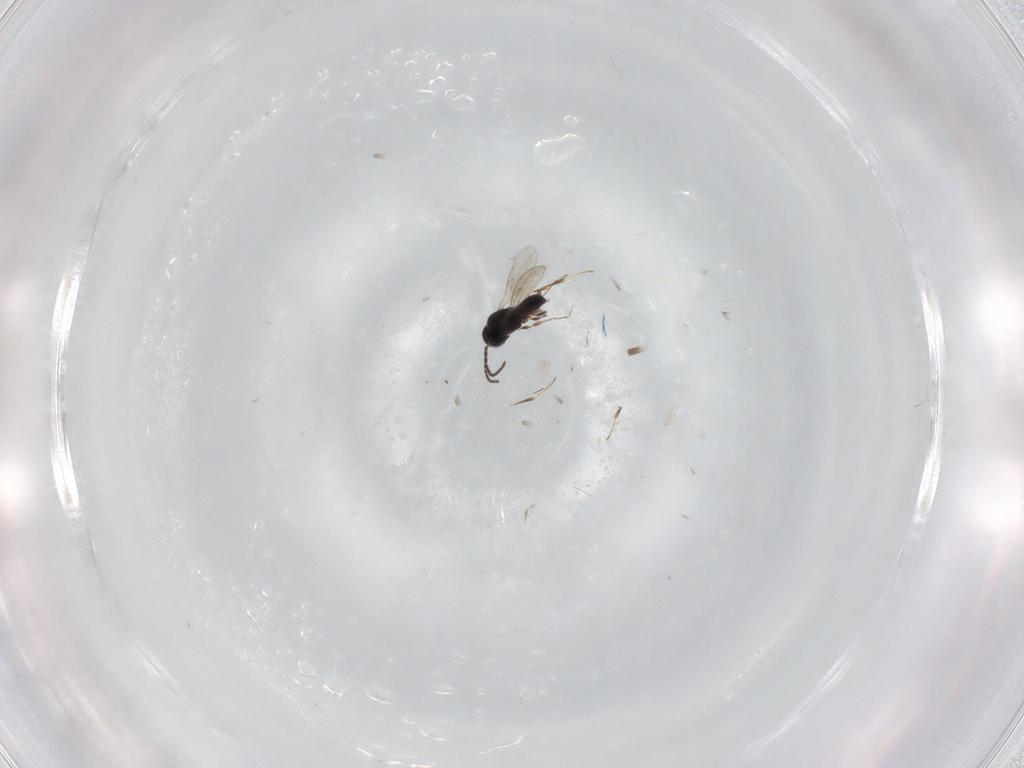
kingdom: Animalia
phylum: Arthropoda
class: Insecta
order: Hymenoptera
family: Scelionidae
